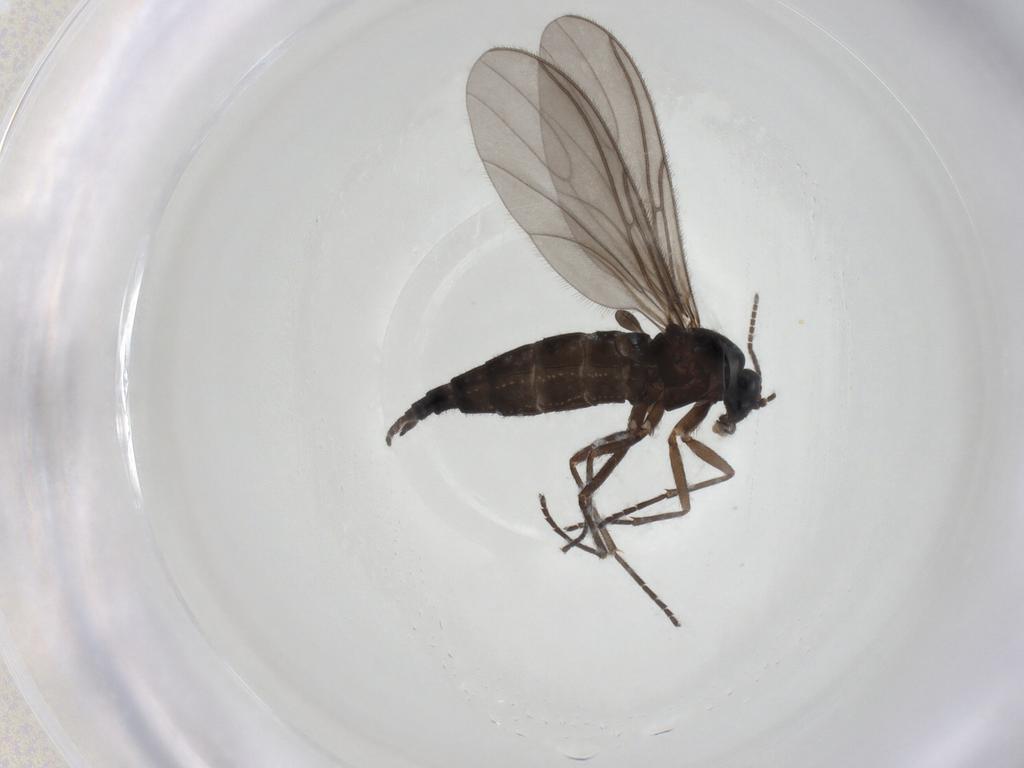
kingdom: Animalia
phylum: Arthropoda
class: Insecta
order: Diptera
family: Sciaridae
